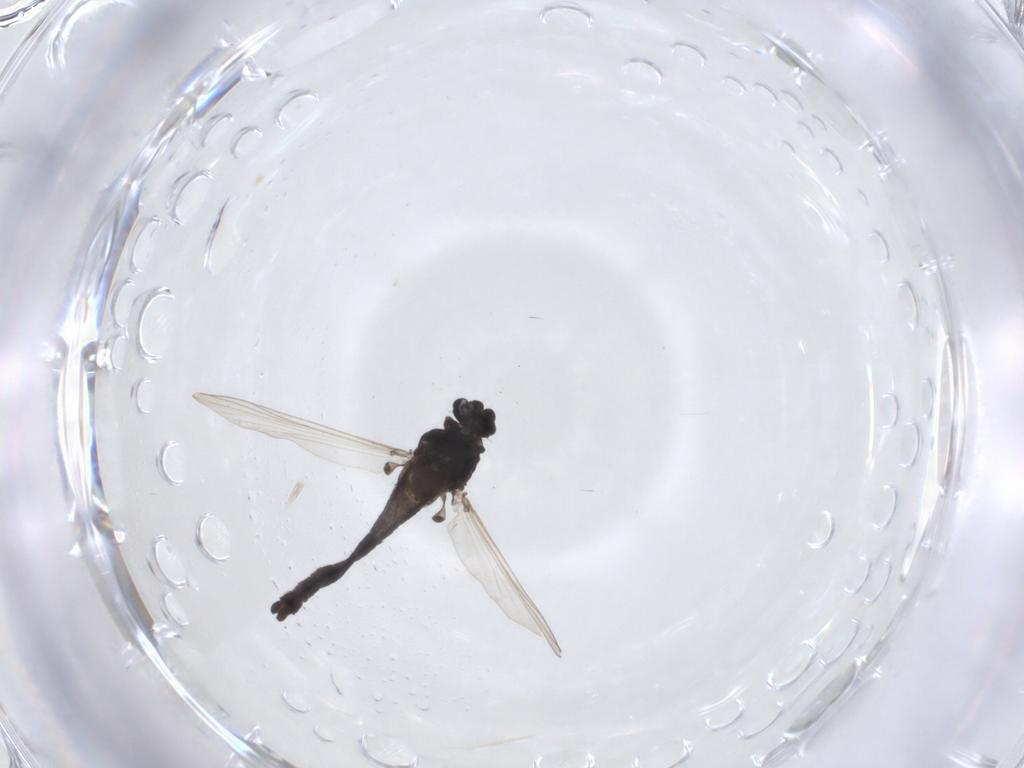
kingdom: Animalia
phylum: Arthropoda
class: Insecta
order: Diptera
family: Chironomidae
